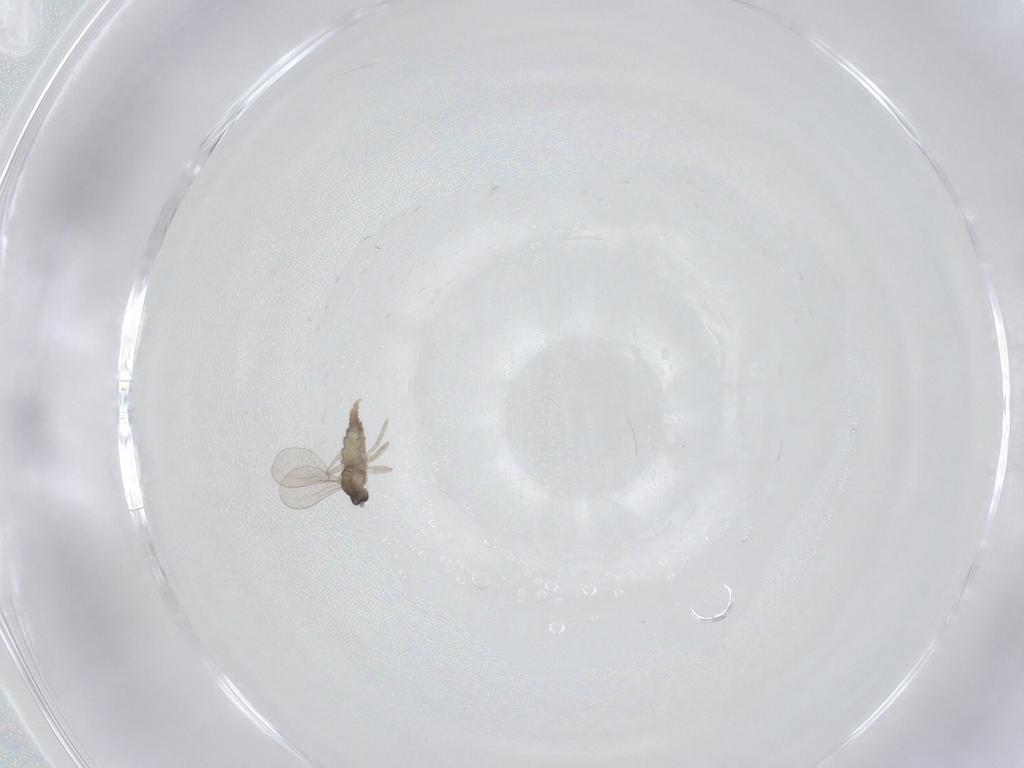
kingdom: Animalia
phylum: Arthropoda
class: Insecta
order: Diptera
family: Cecidomyiidae
